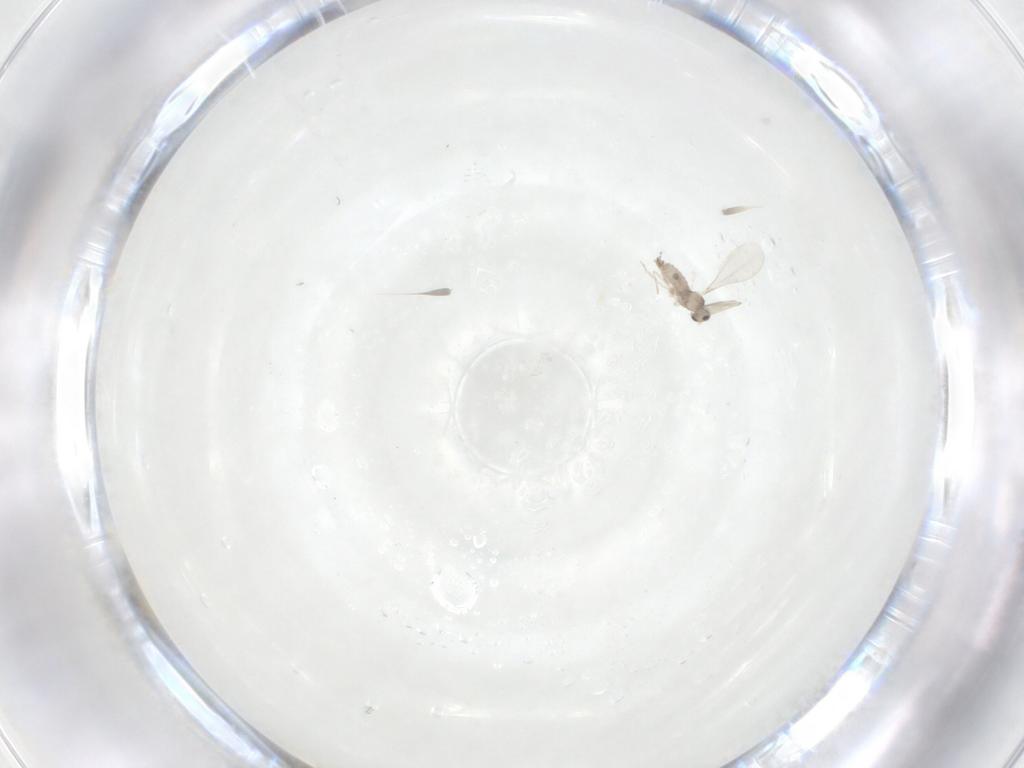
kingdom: Animalia
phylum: Arthropoda
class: Insecta
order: Diptera
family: Cecidomyiidae
